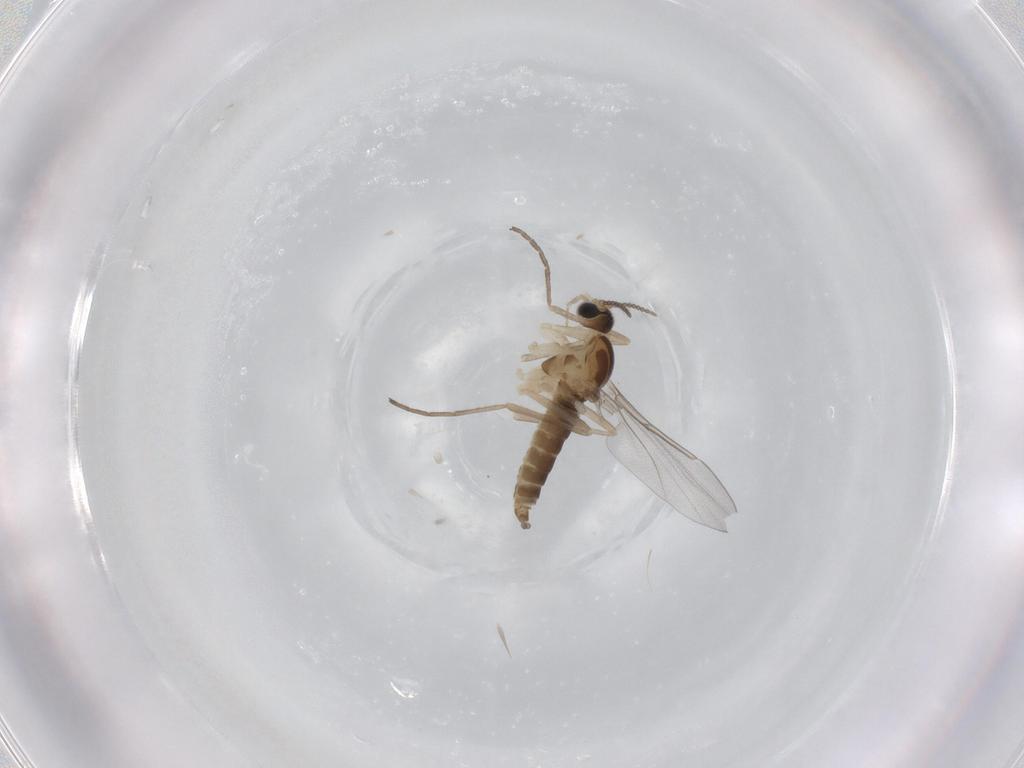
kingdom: Animalia
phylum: Arthropoda
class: Insecta
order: Diptera
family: Cecidomyiidae
